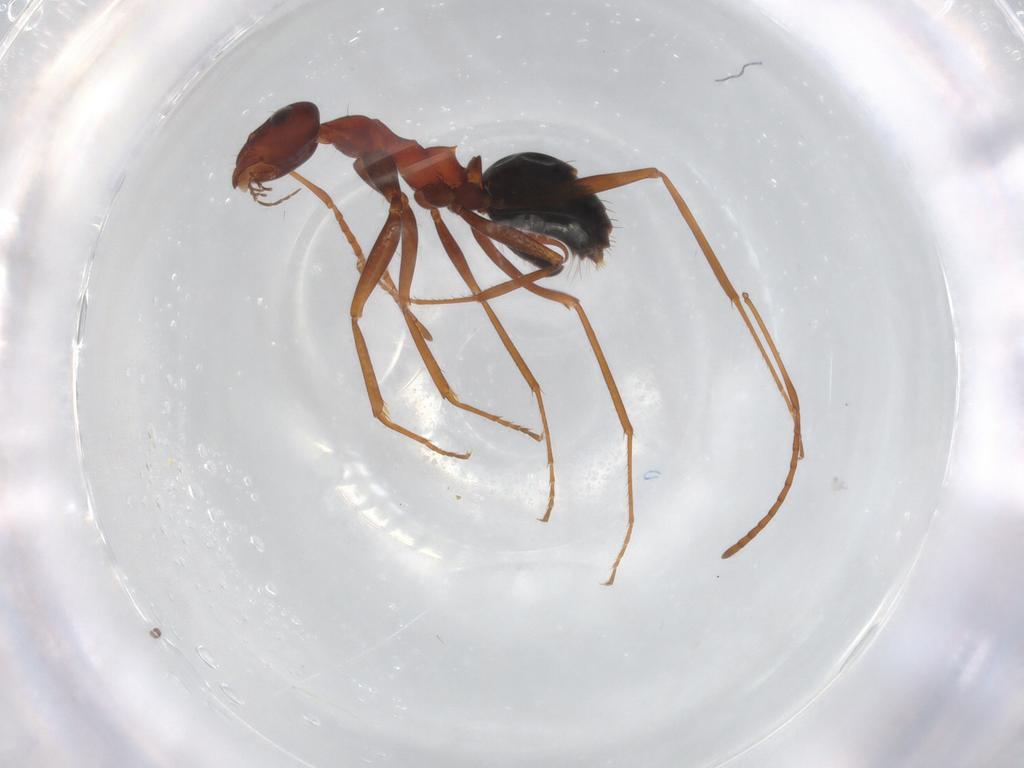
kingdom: Animalia
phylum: Arthropoda
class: Insecta
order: Hymenoptera
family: Formicidae
